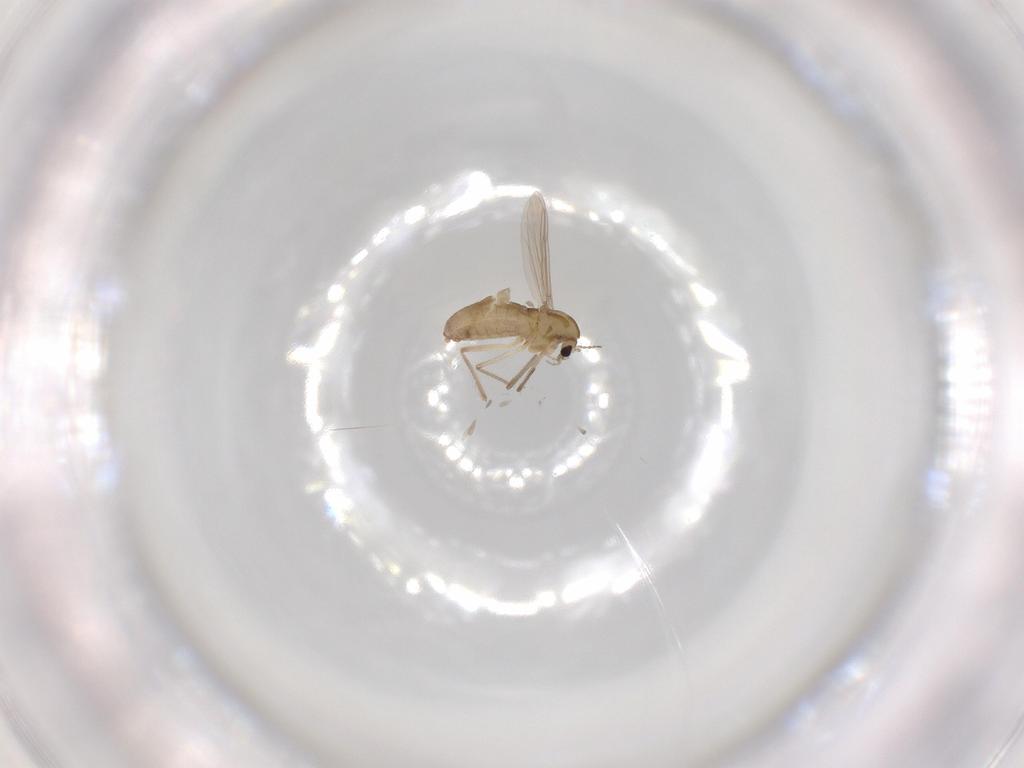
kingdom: Animalia
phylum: Arthropoda
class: Insecta
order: Diptera
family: Chironomidae
